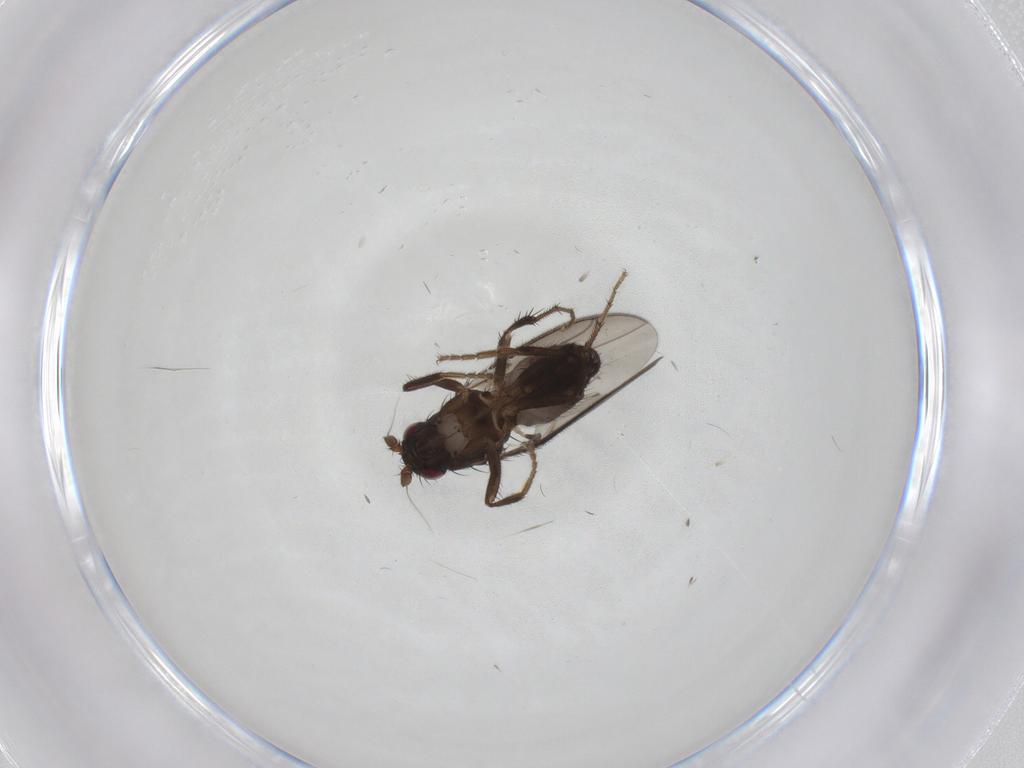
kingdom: Animalia
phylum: Arthropoda
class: Insecta
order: Diptera
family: Sphaeroceridae
